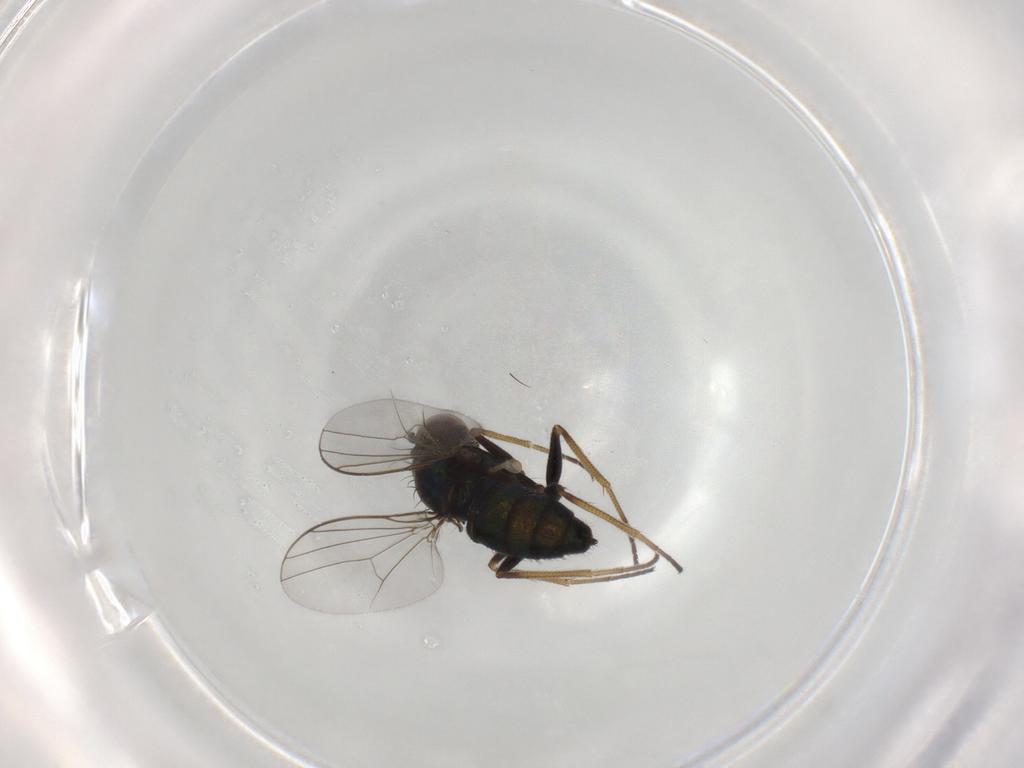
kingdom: Animalia
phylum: Arthropoda
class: Insecta
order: Diptera
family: Dolichopodidae
